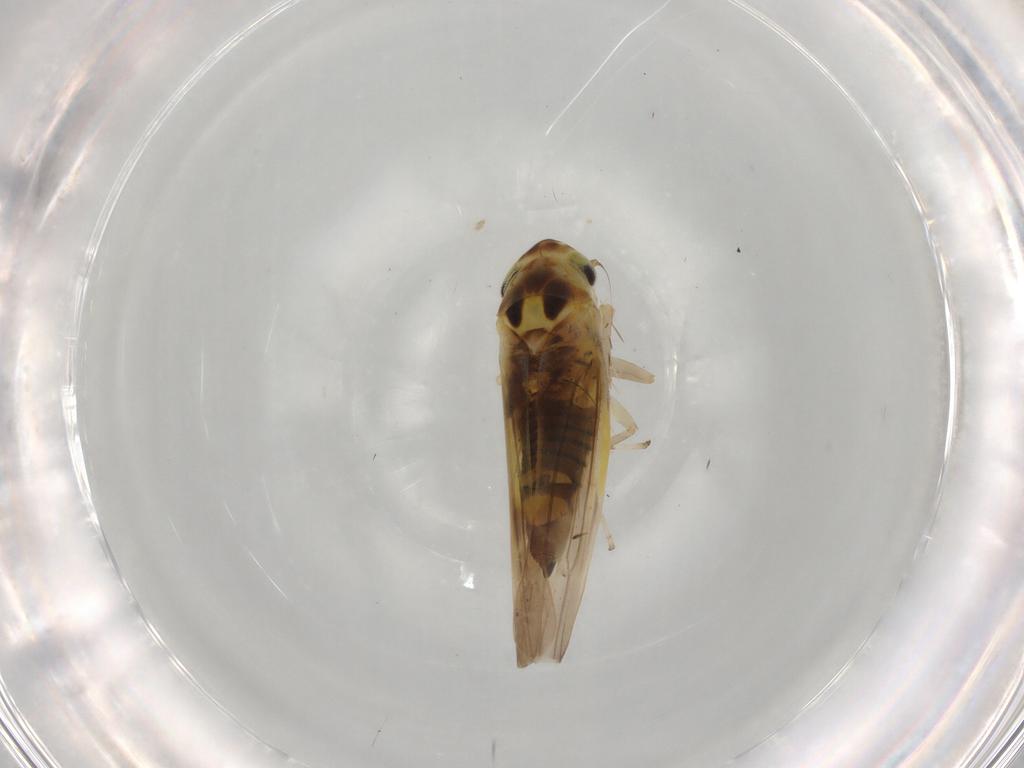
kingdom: Animalia
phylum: Arthropoda
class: Insecta
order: Hemiptera
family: Cicadellidae
